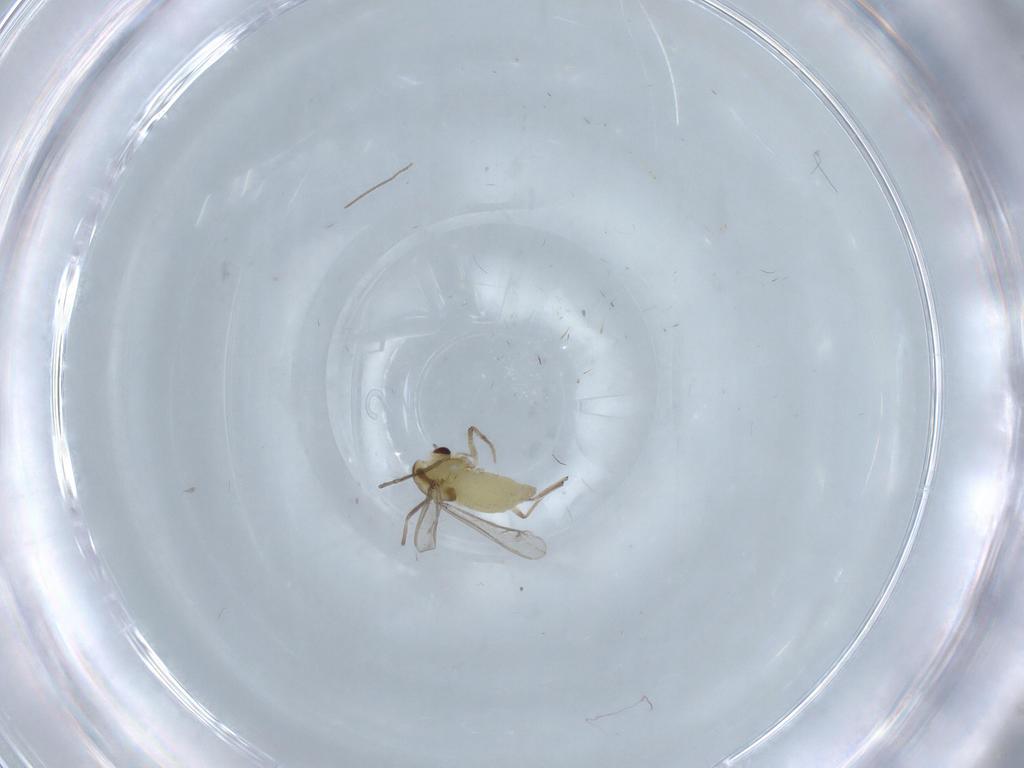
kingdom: Animalia
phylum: Arthropoda
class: Insecta
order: Diptera
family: Chironomidae
